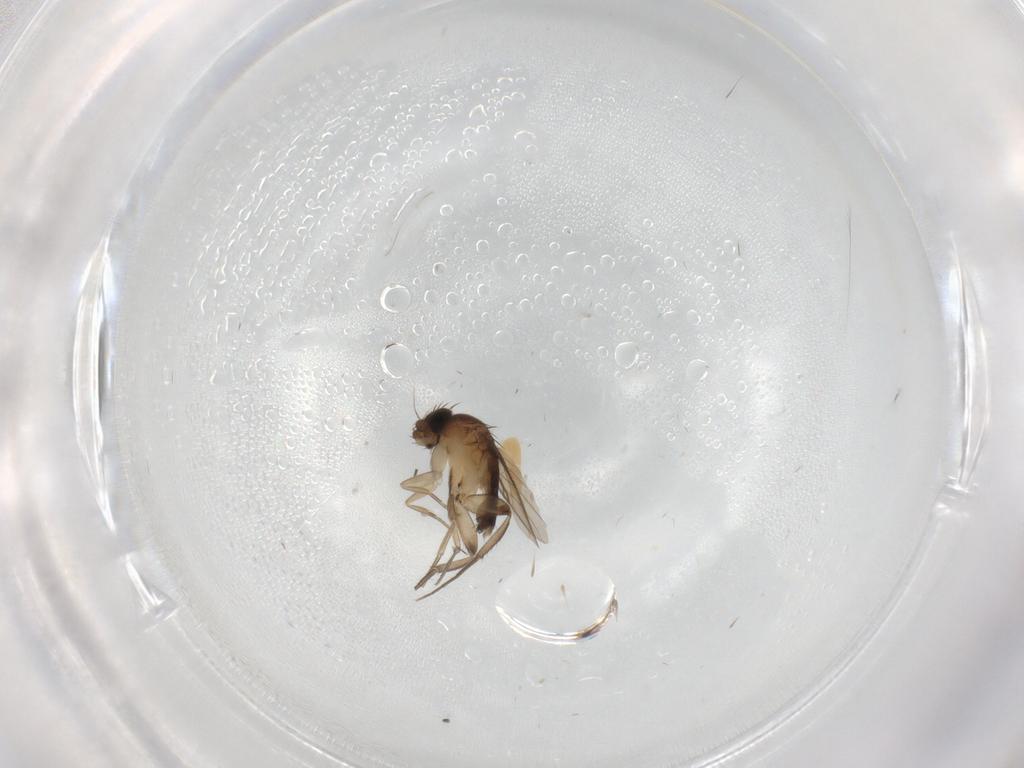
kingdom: Animalia
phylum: Arthropoda
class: Insecta
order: Diptera
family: Phoridae
